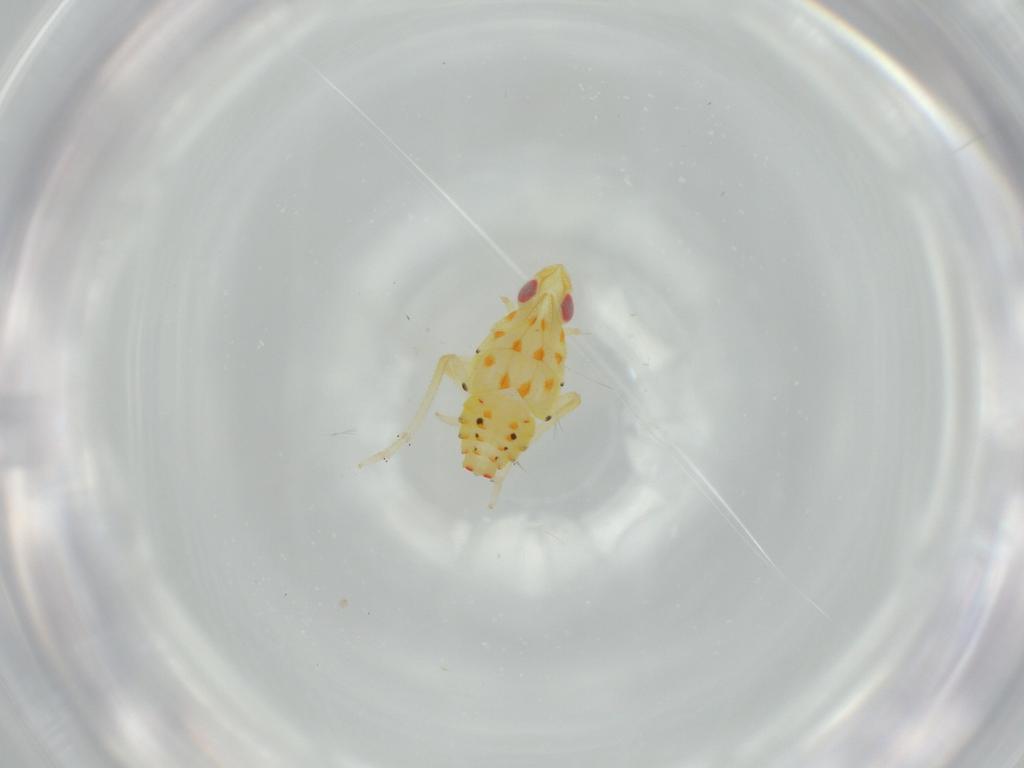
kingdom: Animalia
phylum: Arthropoda
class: Insecta
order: Hemiptera
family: Tropiduchidae
